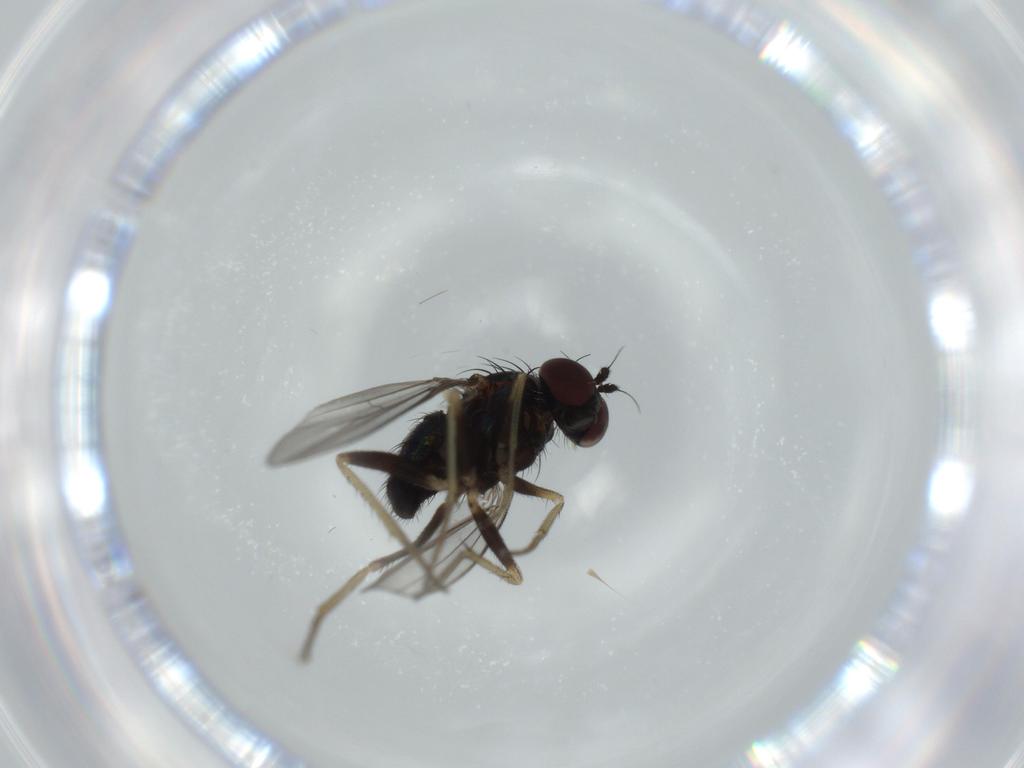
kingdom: Animalia
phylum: Arthropoda
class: Insecta
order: Diptera
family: Dolichopodidae
